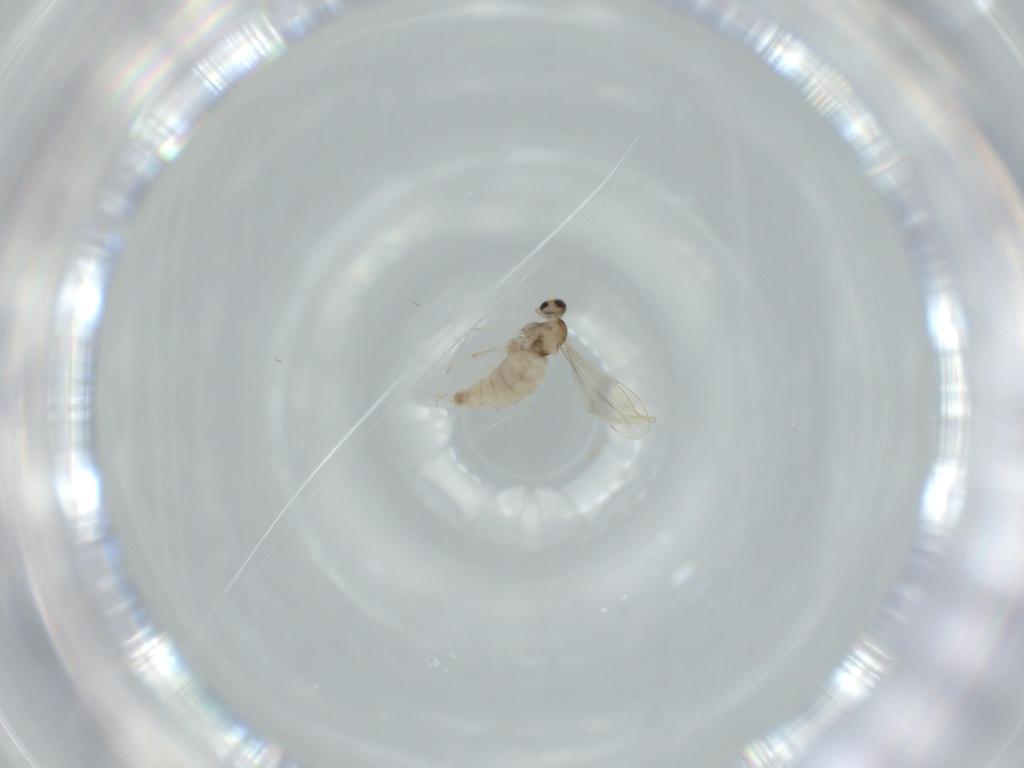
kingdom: Animalia
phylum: Arthropoda
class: Insecta
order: Diptera
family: Cecidomyiidae
